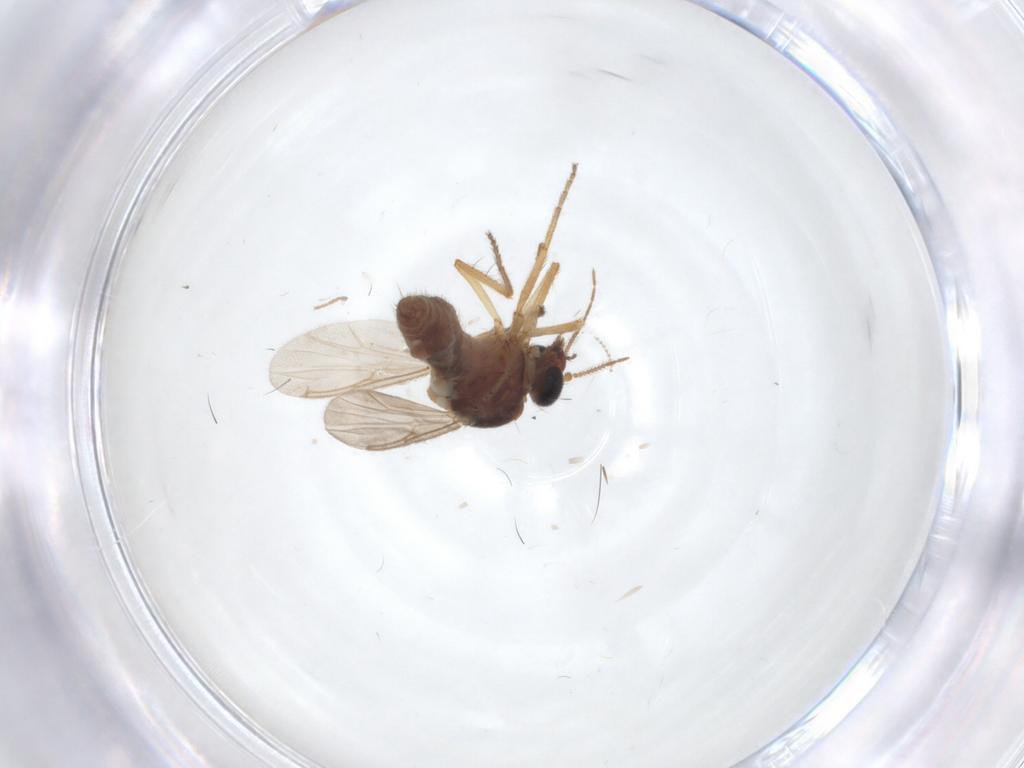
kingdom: Animalia
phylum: Arthropoda
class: Insecta
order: Diptera
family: Ceratopogonidae
